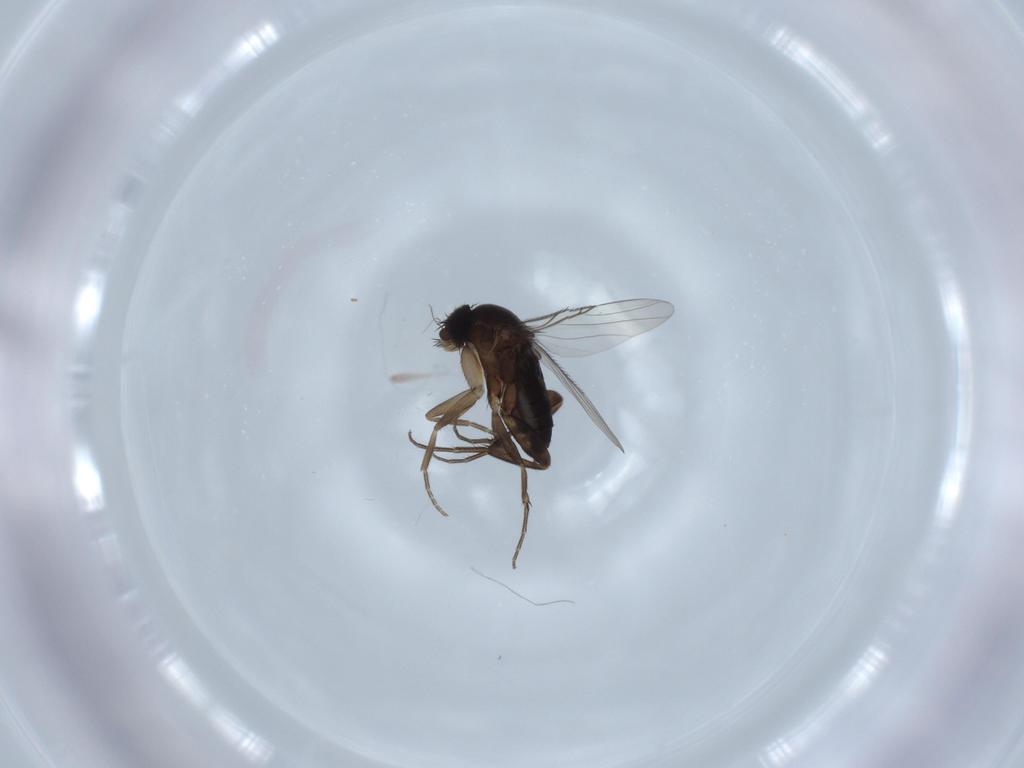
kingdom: Animalia
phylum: Arthropoda
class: Insecta
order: Diptera
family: Phoridae
